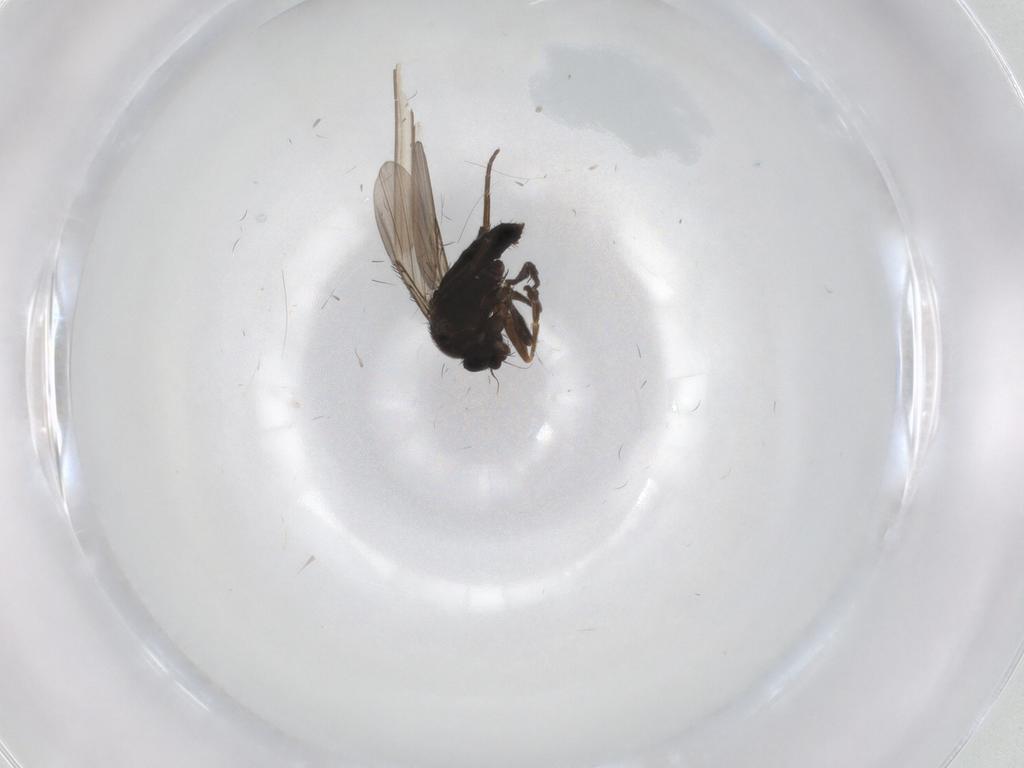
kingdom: Animalia
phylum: Arthropoda
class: Insecta
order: Diptera
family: Phoridae
